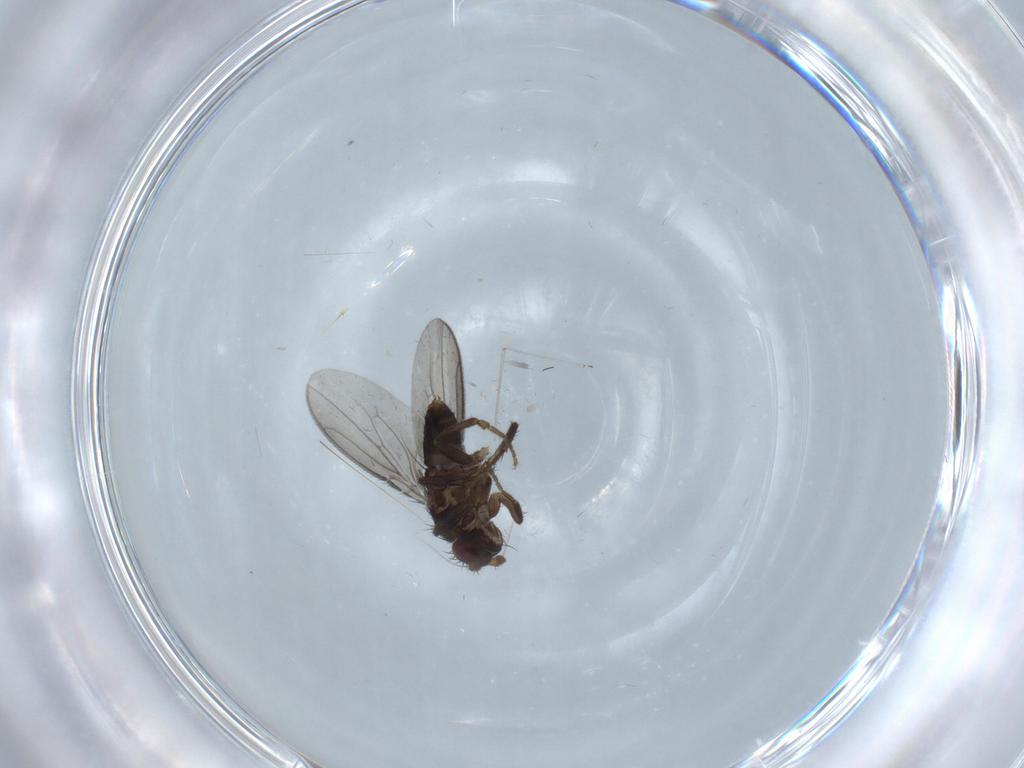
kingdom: Animalia
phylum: Arthropoda
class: Insecta
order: Diptera
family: Sphaeroceridae
